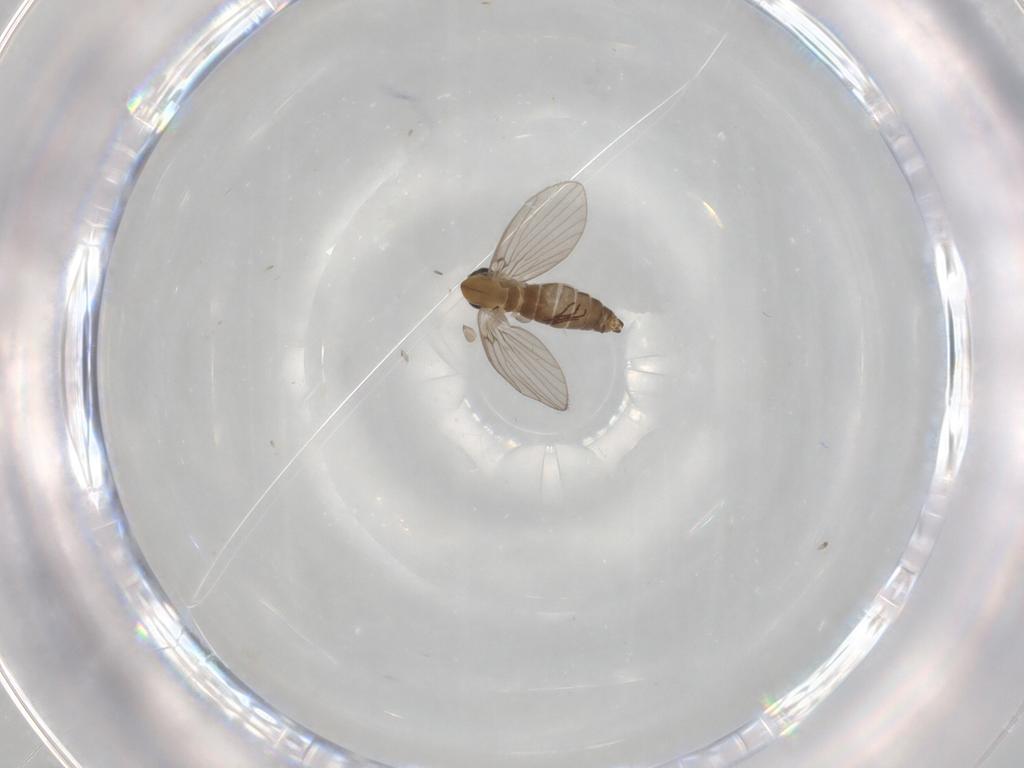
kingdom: Animalia
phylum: Arthropoda
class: Insecta
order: Diptera
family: Psychodidae
